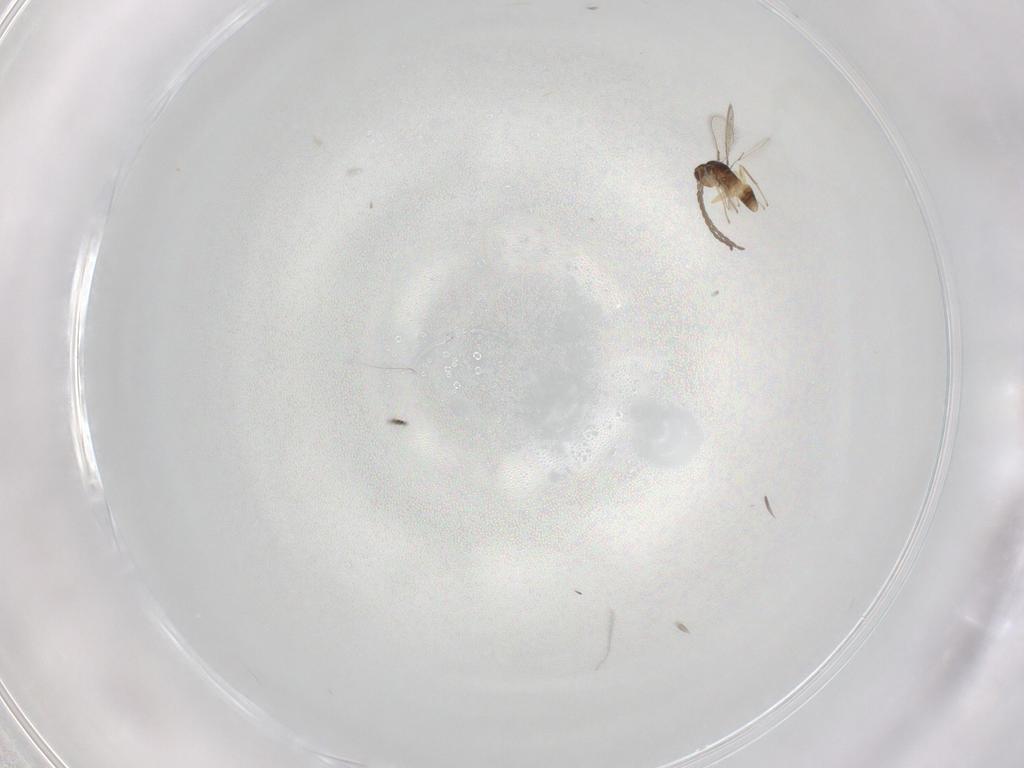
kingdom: Animalia
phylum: Arthropoda
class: Insecta
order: Hymenoptera
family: Mymaridae
